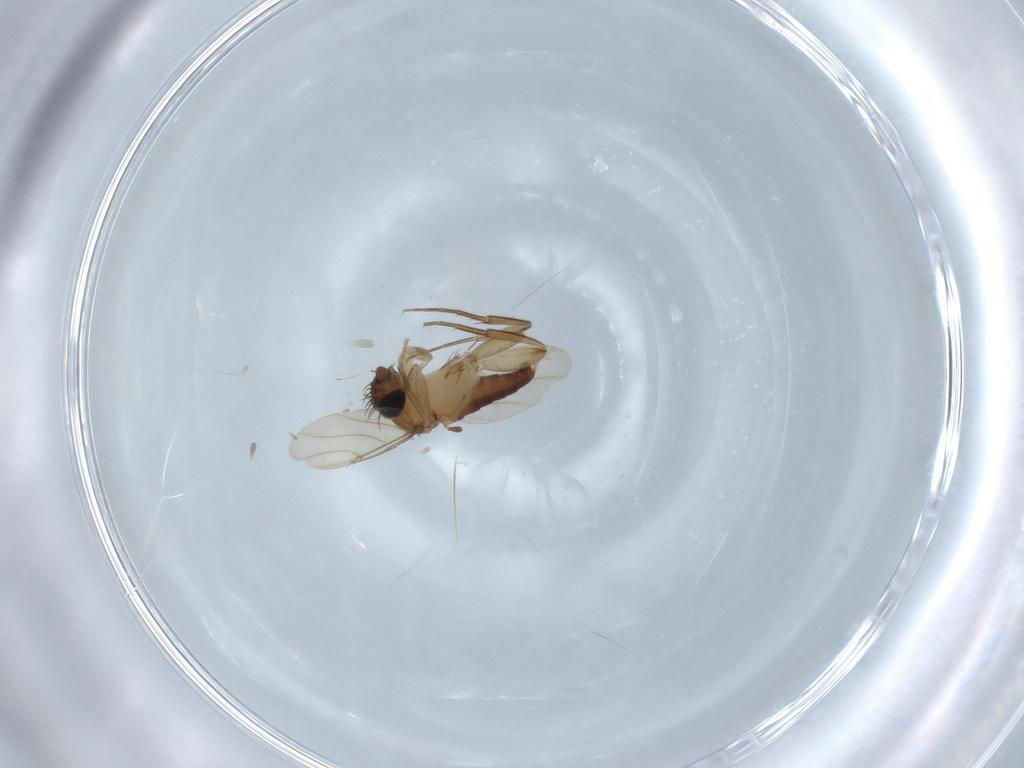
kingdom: Animalia
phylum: Arthropoda
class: Insecta
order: Diptera
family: Phoridae
